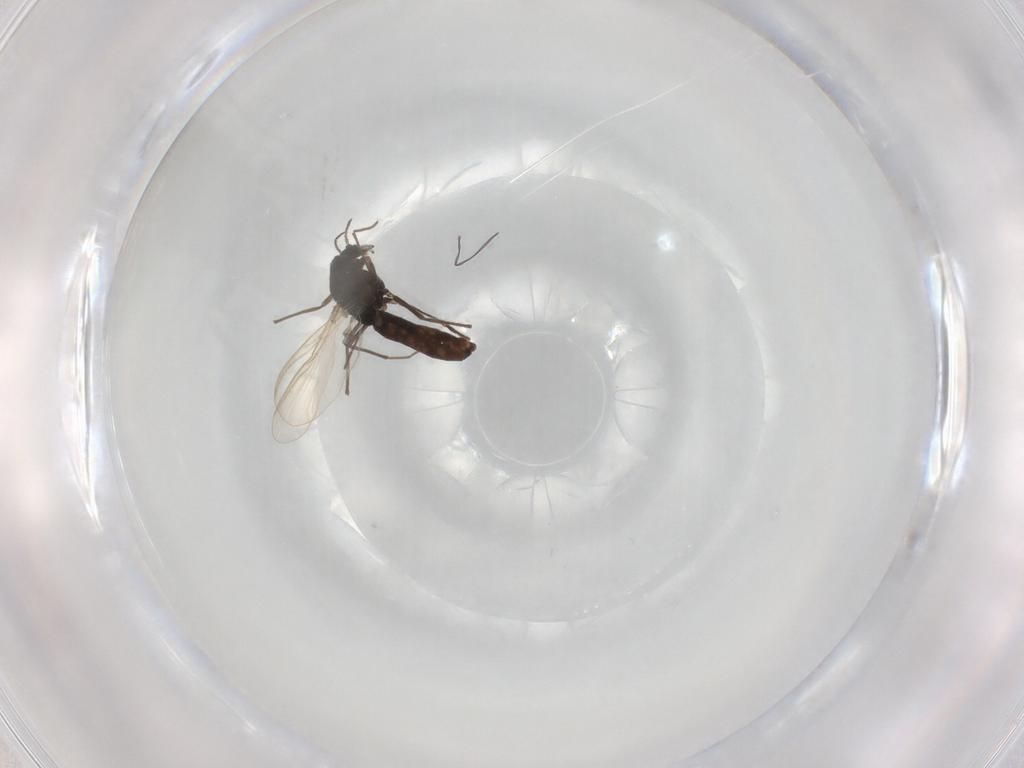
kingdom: Animalia
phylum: Arthropoda
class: Insecta
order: Diptera
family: Chironomidae
